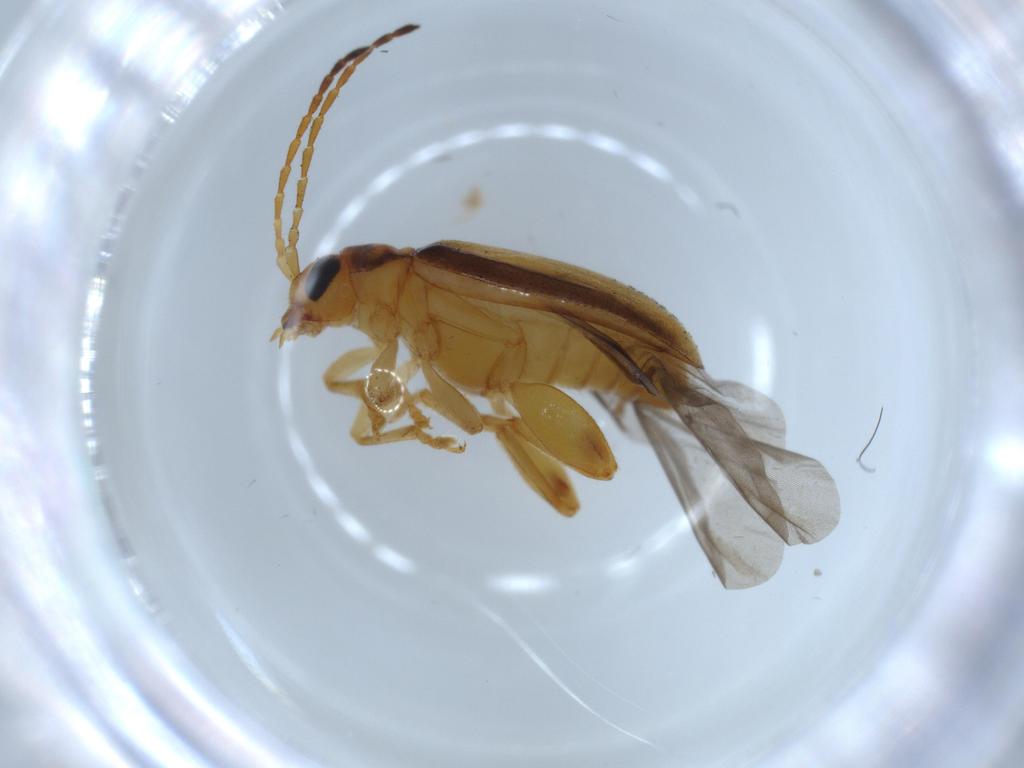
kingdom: Animalia
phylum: Arthropoda
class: Insecta
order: Coleoptera
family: Chrysomelidae
